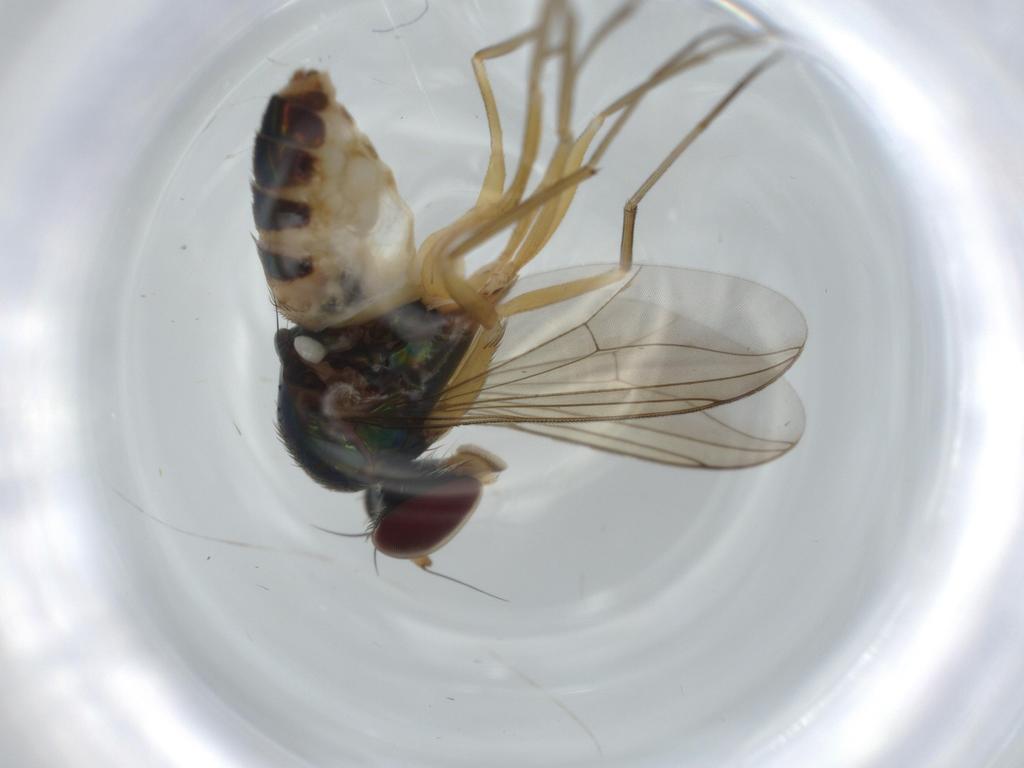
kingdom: Animalia
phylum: Arthropoda
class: Insecta
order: Diptera
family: Dolichopodidae
